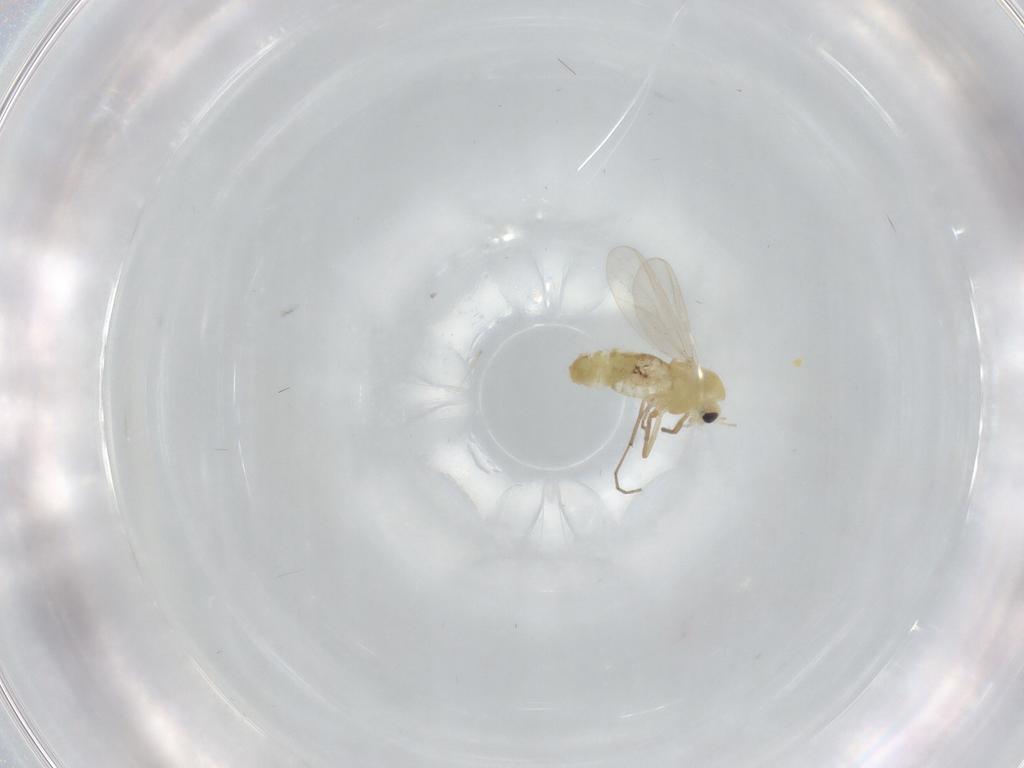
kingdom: Animalia
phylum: Arthropoda
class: Insecta
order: Diptera
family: Chironomidae
